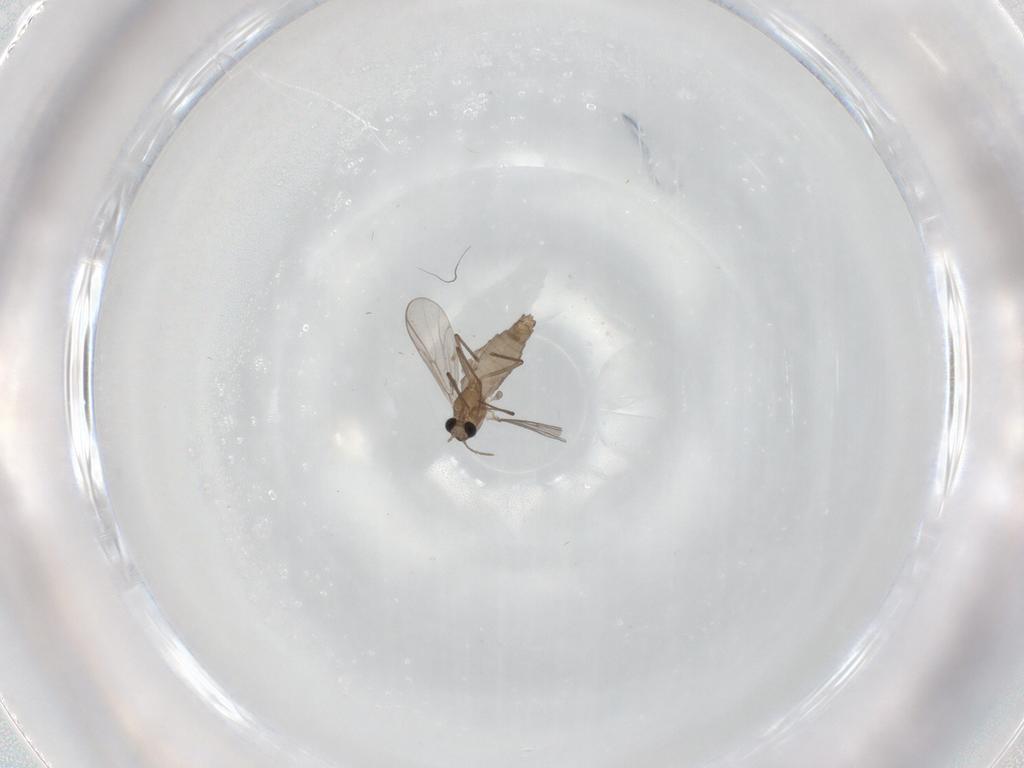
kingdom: Animalia
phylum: Arthropoda
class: Insecta
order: Diptera
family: Chironomidae
